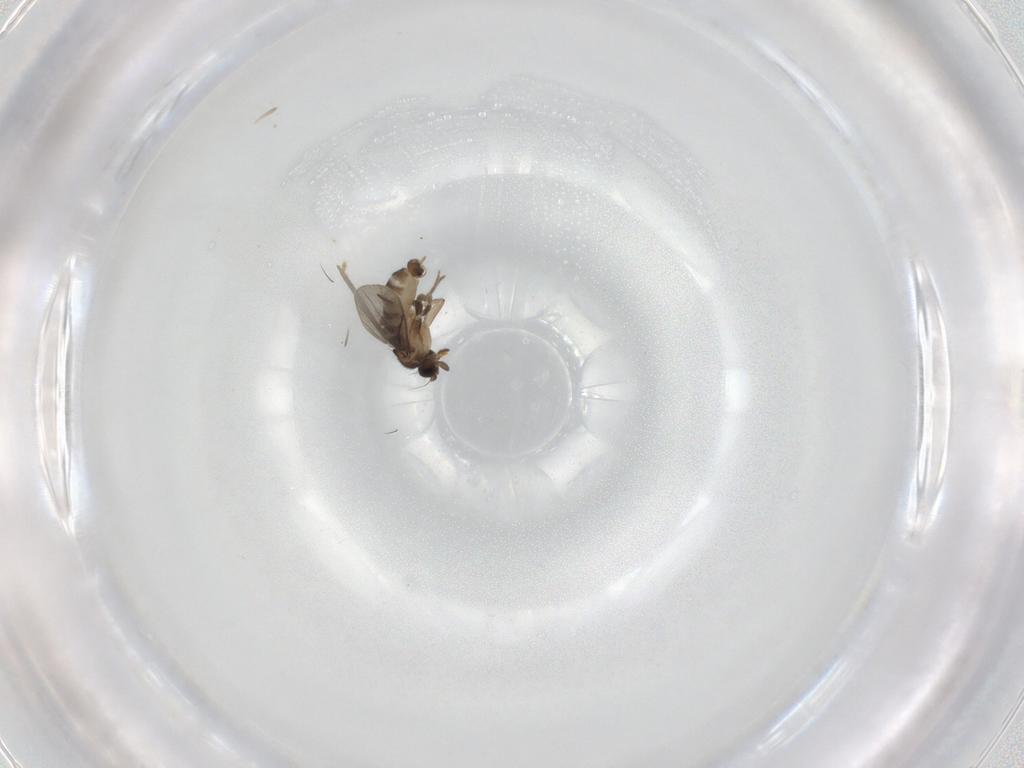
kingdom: Animalia
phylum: Arthropoda
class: Insecta
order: Diptera
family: Cecidomyiidae
